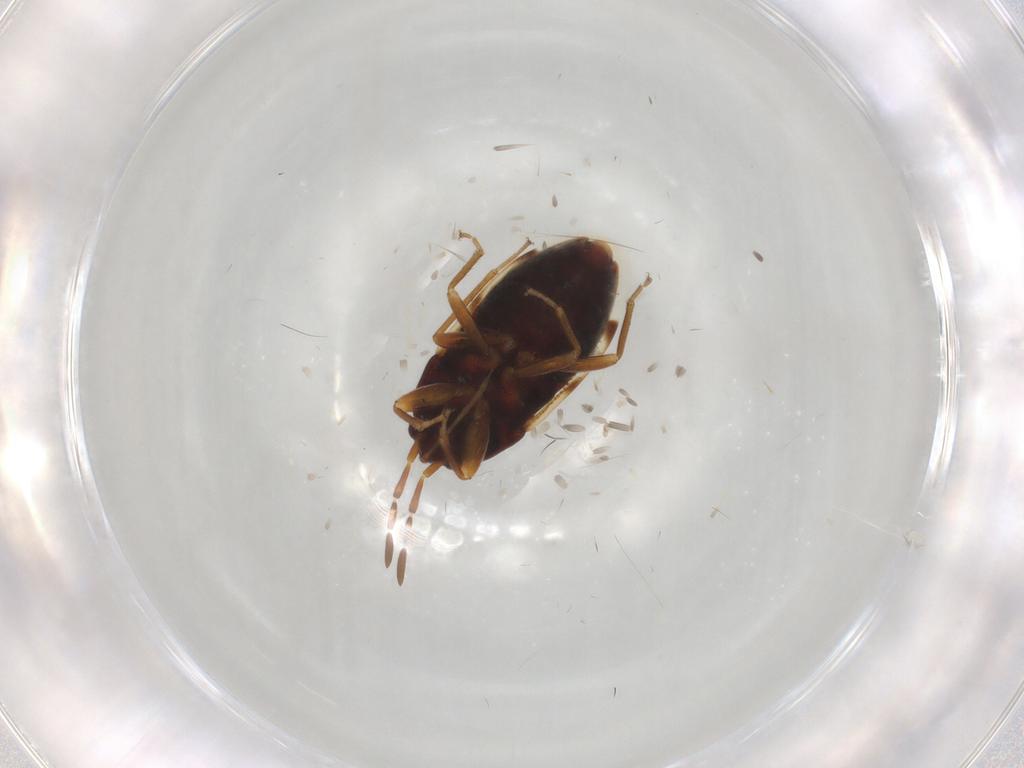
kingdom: Animalia
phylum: Arthropoda
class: Insecta
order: Hemiptera
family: Rhyparochromidae
